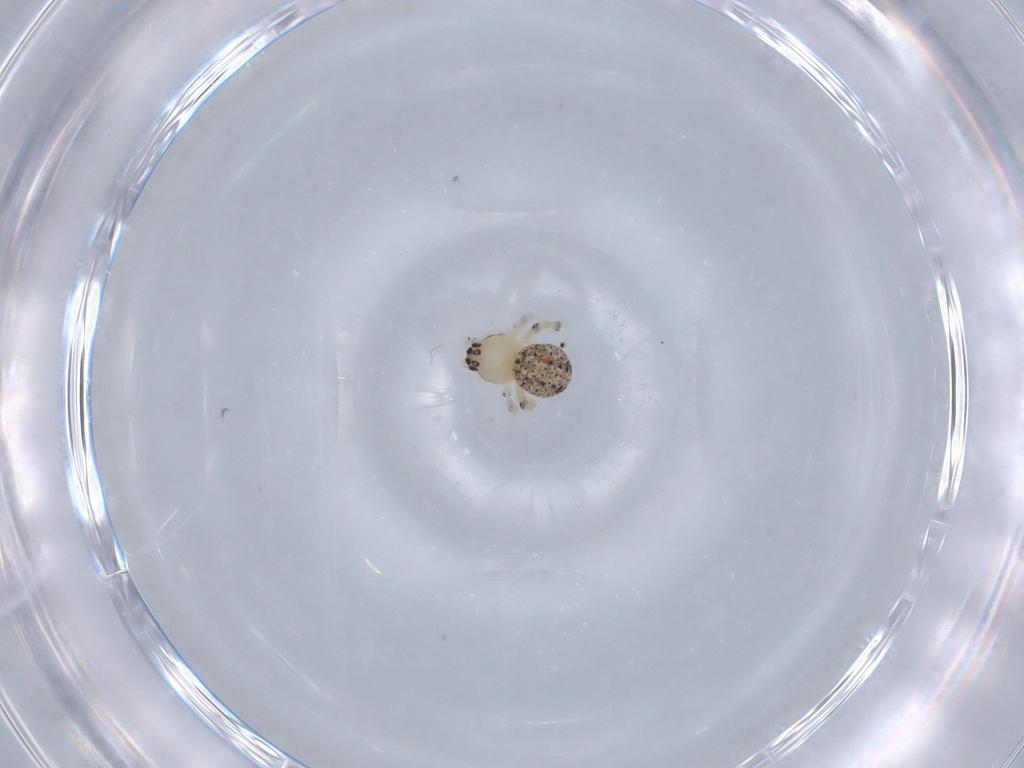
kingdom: Animalia
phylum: Arthropoda
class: Arachnida
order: Araneae
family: Theridiidae
